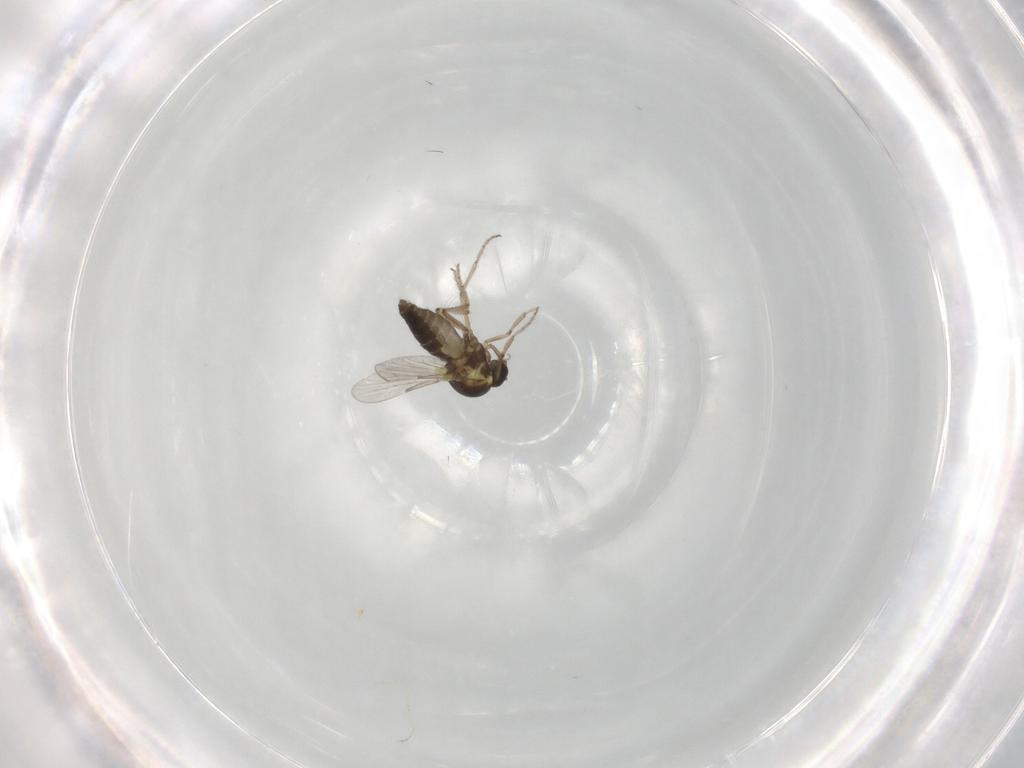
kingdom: Animalia
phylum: Arthropoda
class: Insecta
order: Diptera
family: Ceratopogonidae
